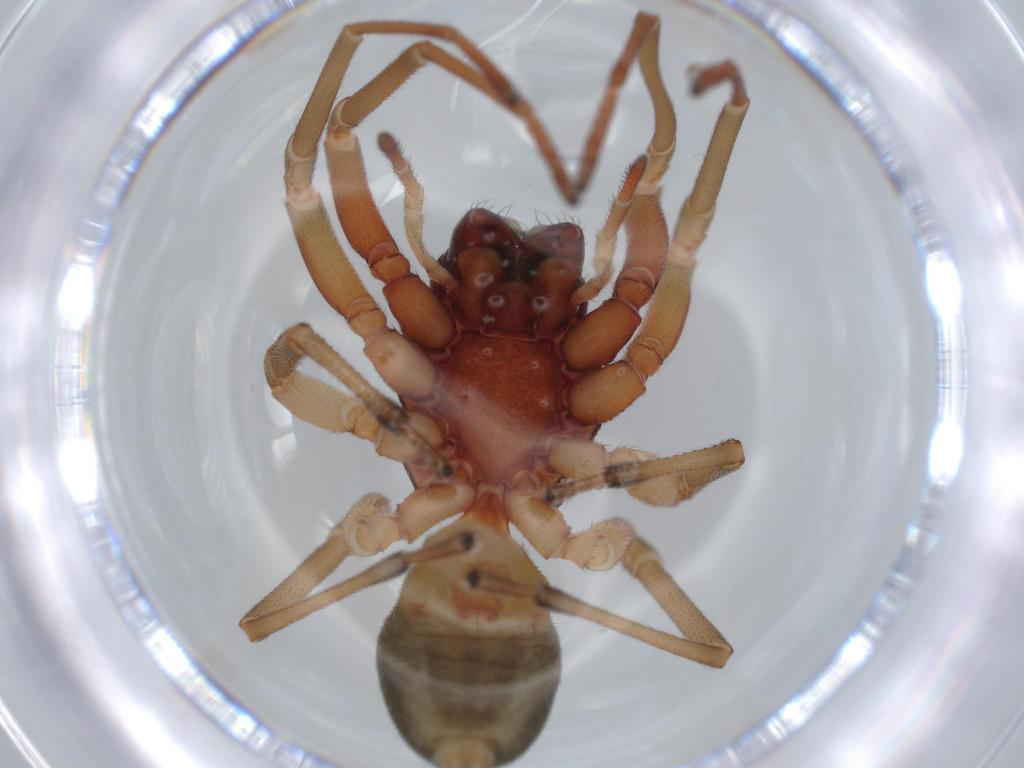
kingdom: Animalia
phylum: Arthropoda
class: Arachnida
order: Araneae
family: Trachelidae
